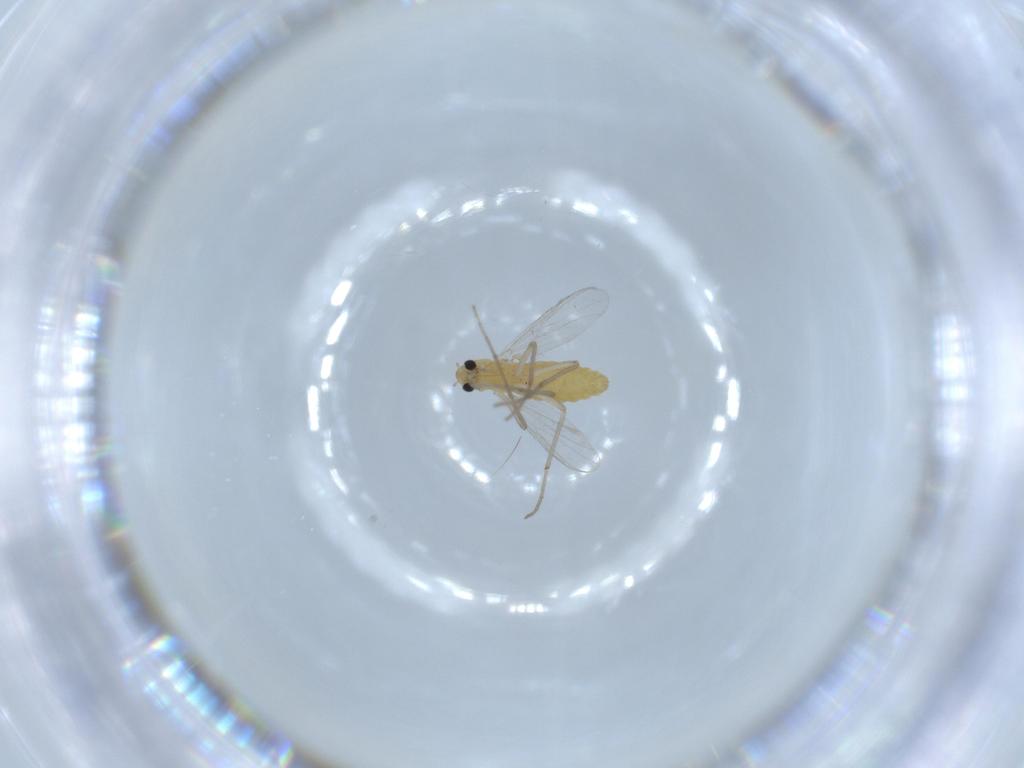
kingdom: Animalia
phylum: Arthropoda
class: Insecta
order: Diptera
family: Chironomidae
